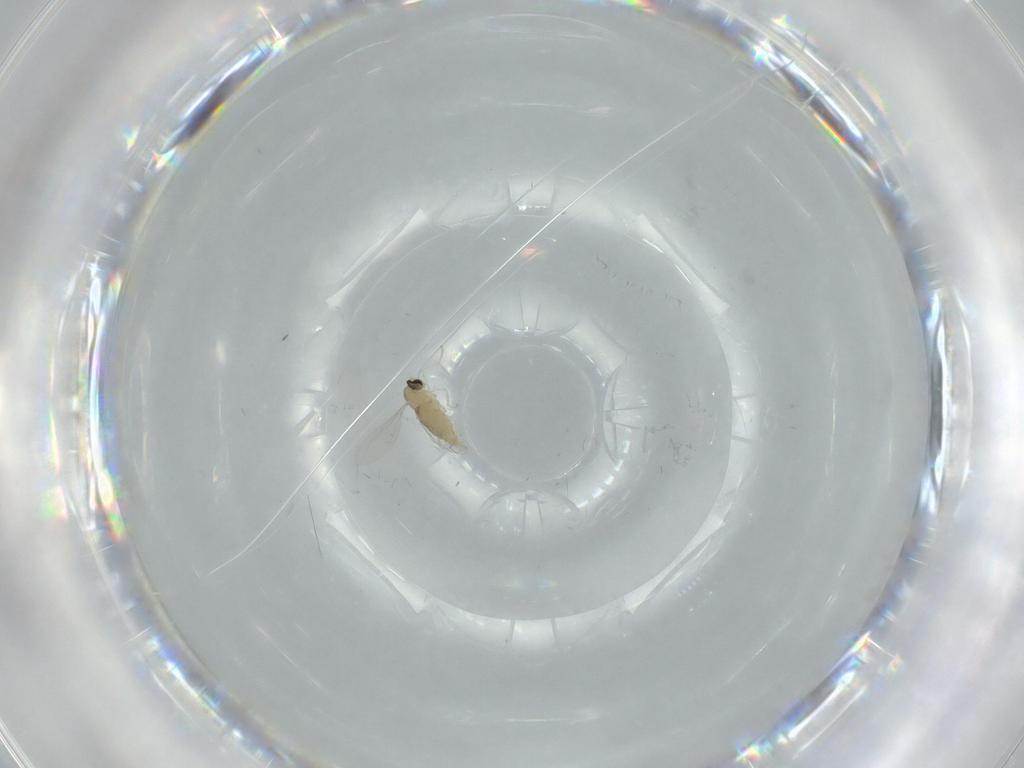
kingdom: Animalia
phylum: Arthropoda
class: Insecta
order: Diptera
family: Cecidomyiidae
